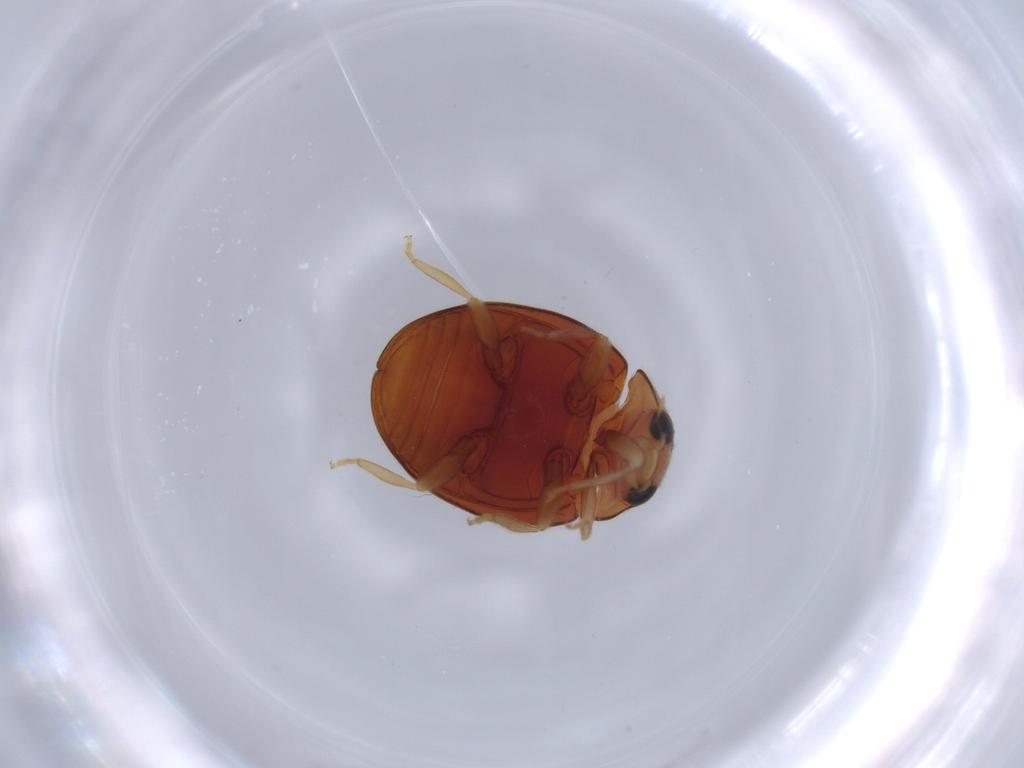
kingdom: Animalia
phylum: Arthropoda
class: Insecta
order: Coleoptera
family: Coccinellidae
